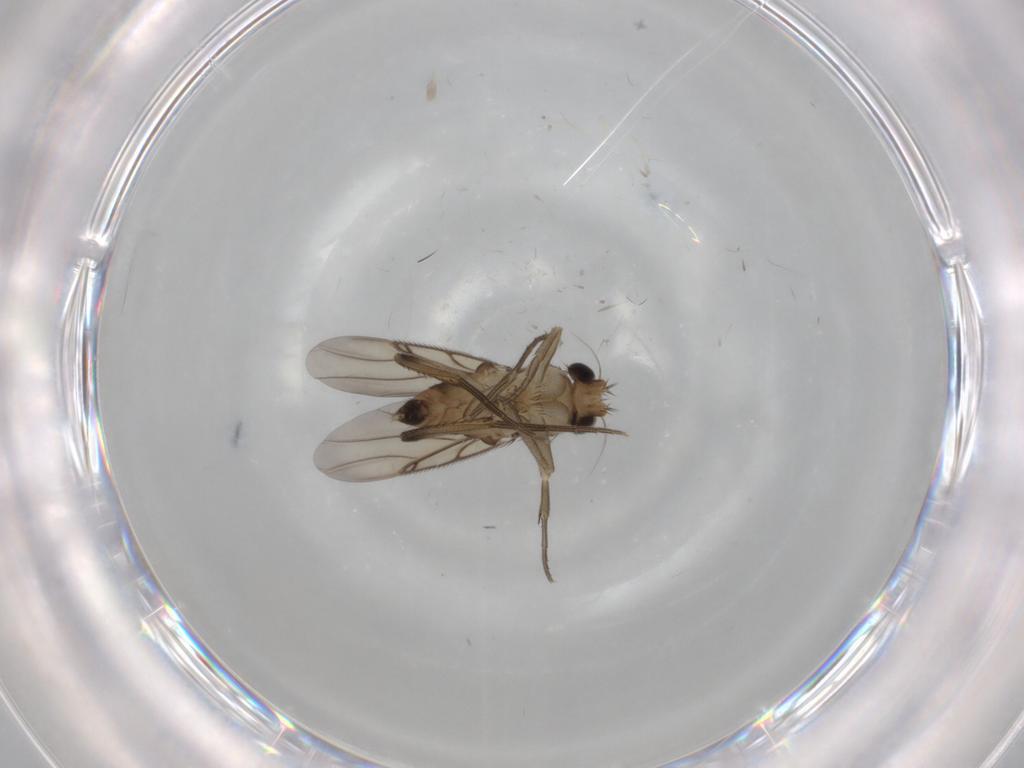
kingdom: Animalia
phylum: Arthropoda
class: Insecta
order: Diptera
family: Phoridae
